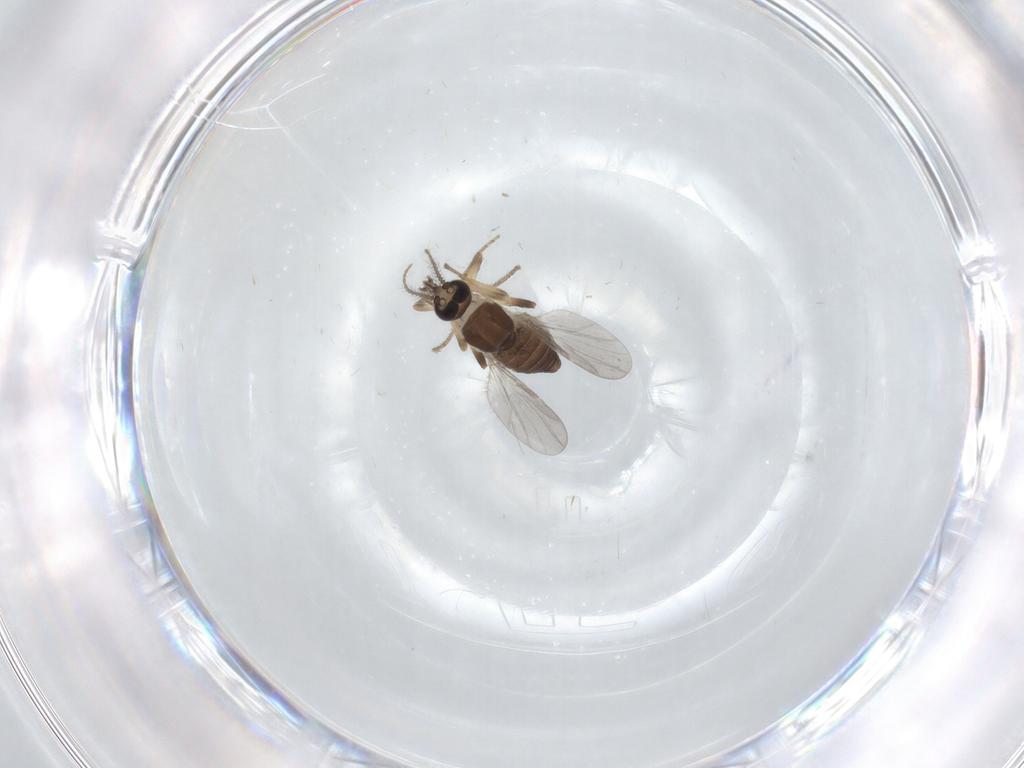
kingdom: Animalia
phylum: Arthropoda
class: Insecta
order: Diptera
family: Ceratopogonidae
